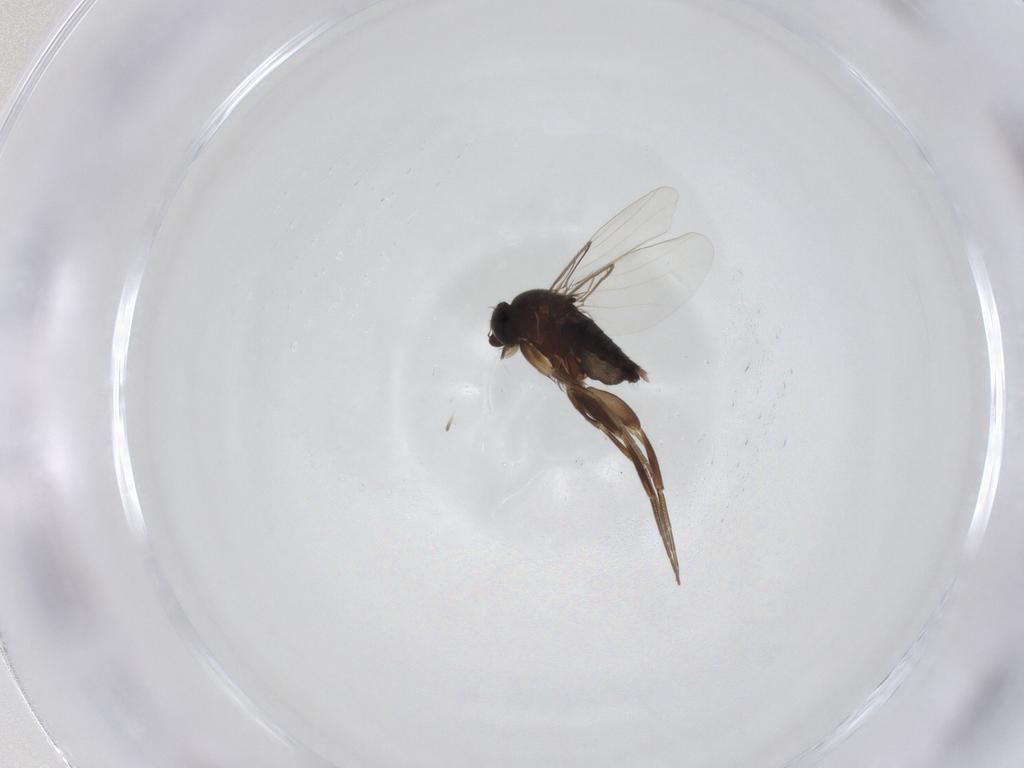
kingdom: Animalia
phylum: Arthropoda
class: Insecta
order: Diptera
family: Phoridae
